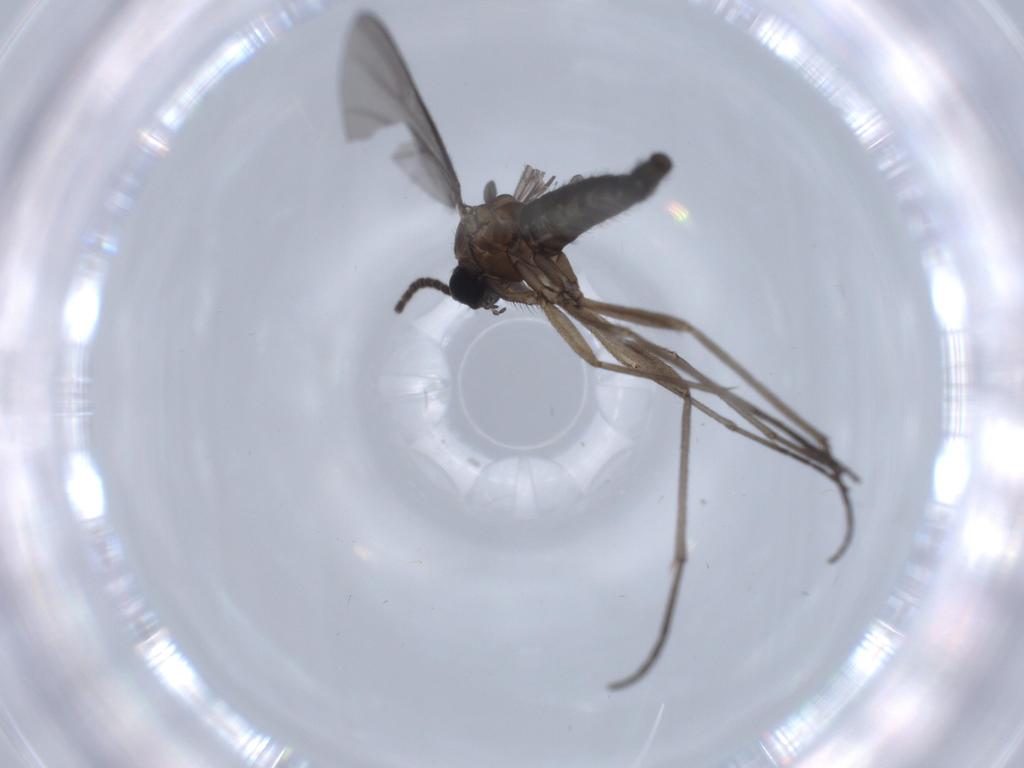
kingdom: Animalia
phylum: Arthropoda
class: Insecta
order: Diptera
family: Sciaridae
